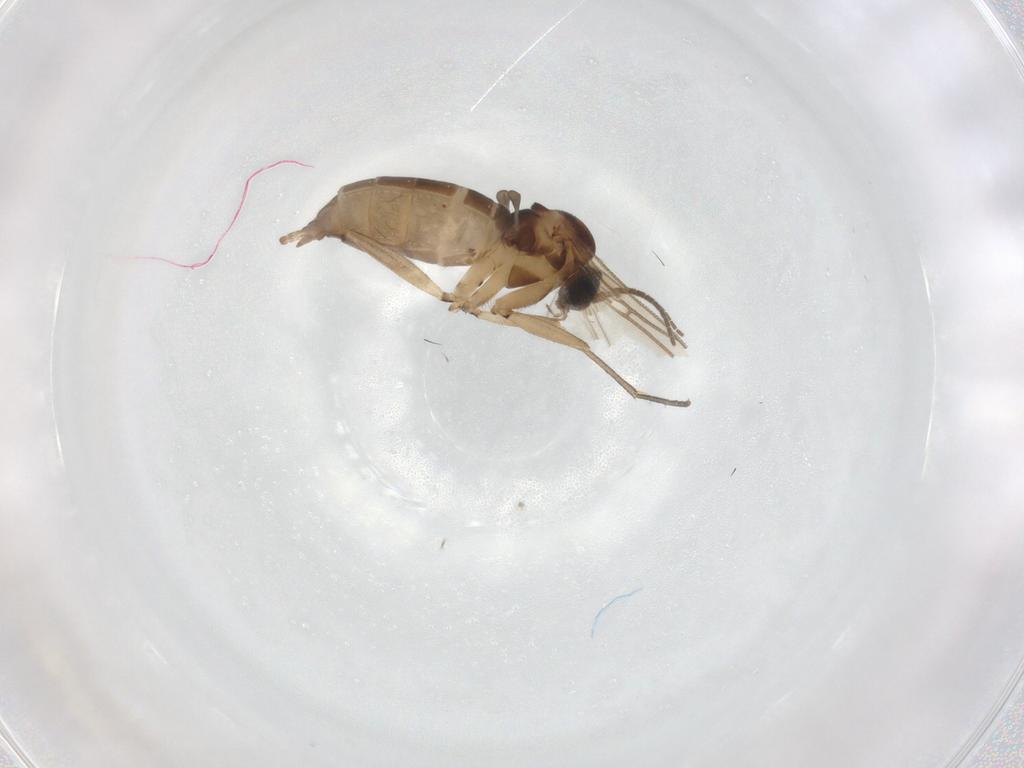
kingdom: Animalia
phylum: Arthropoda
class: Insecta
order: Diptera
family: Sciaridae
